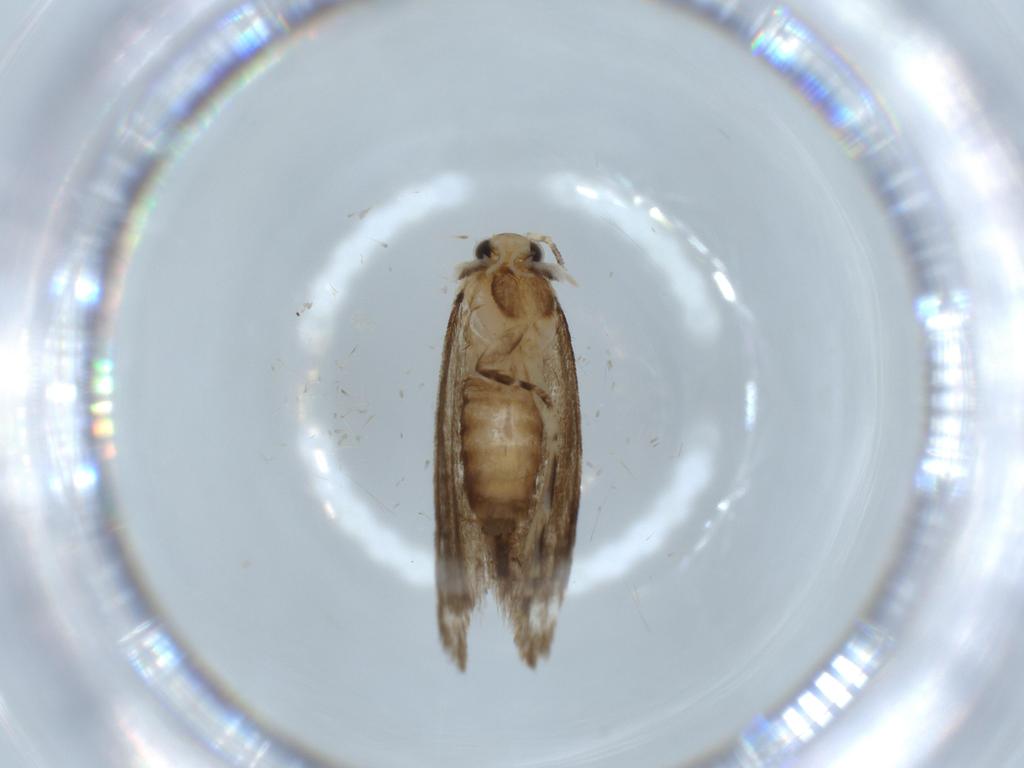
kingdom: Animalia
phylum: Arthropoda
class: Insecta
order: Lepidoptera
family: Tineidae
